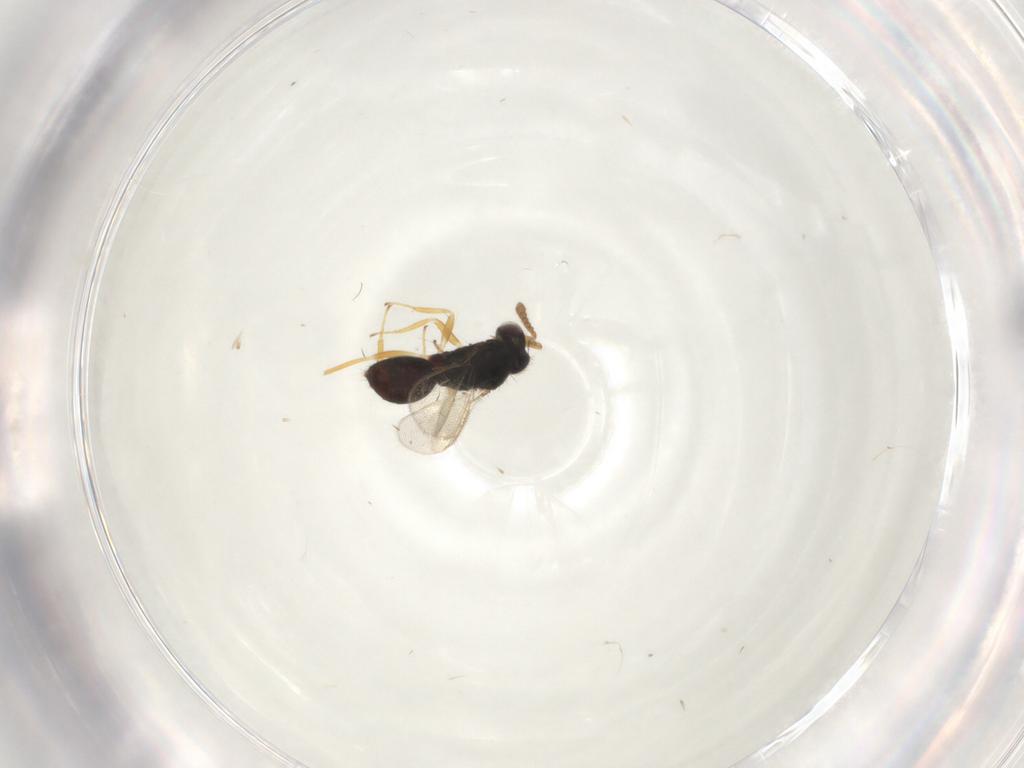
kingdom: Animalia
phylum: Arthropoda
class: Insecta
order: Hymenoptera
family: Eulophidae
